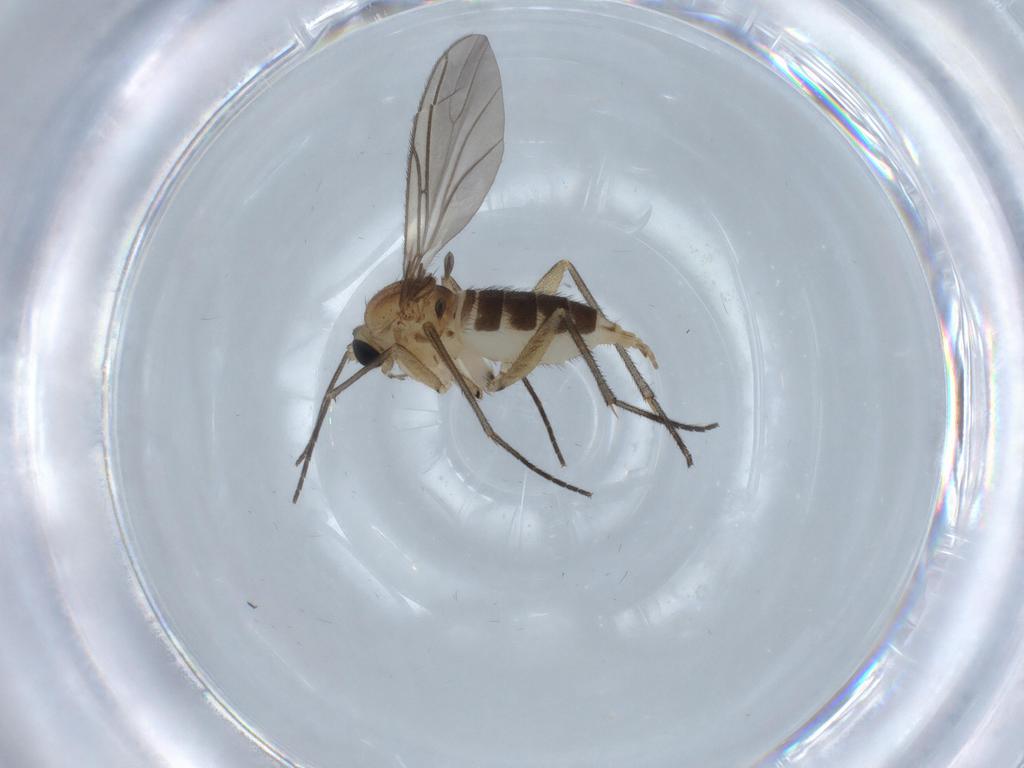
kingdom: Animalia
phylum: Arthropoda
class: Insecta
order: Diptera
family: Sciaridae
